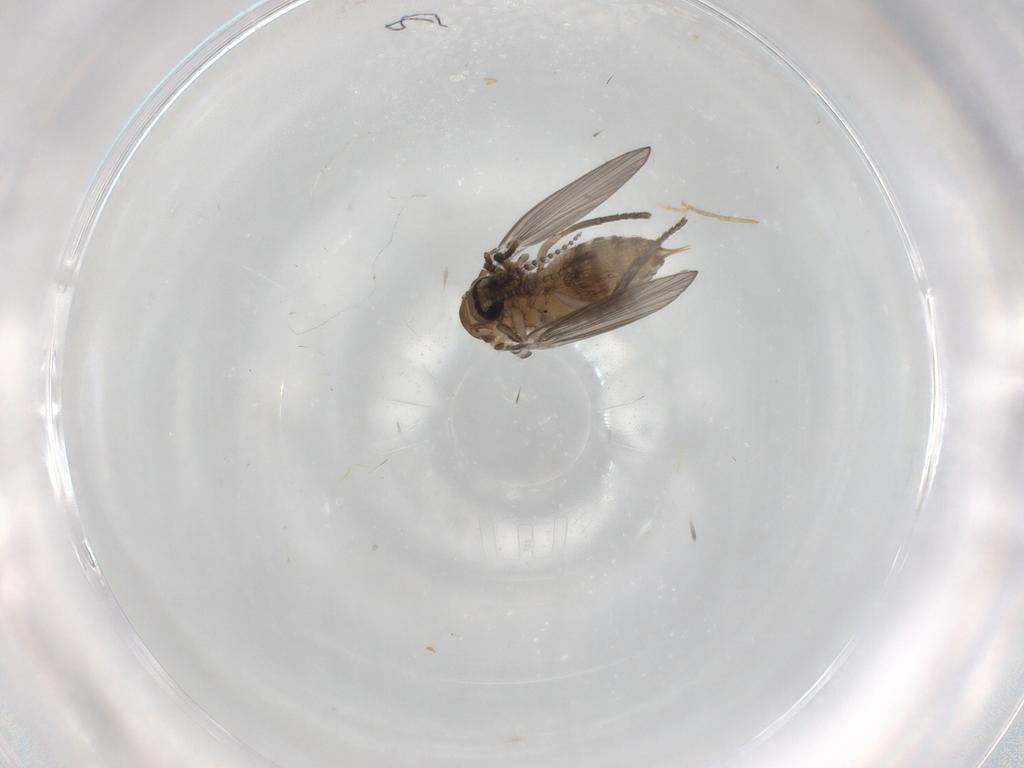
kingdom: Animalia
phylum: Arthropoda
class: Insecta
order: Diptera
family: Psychodidae
